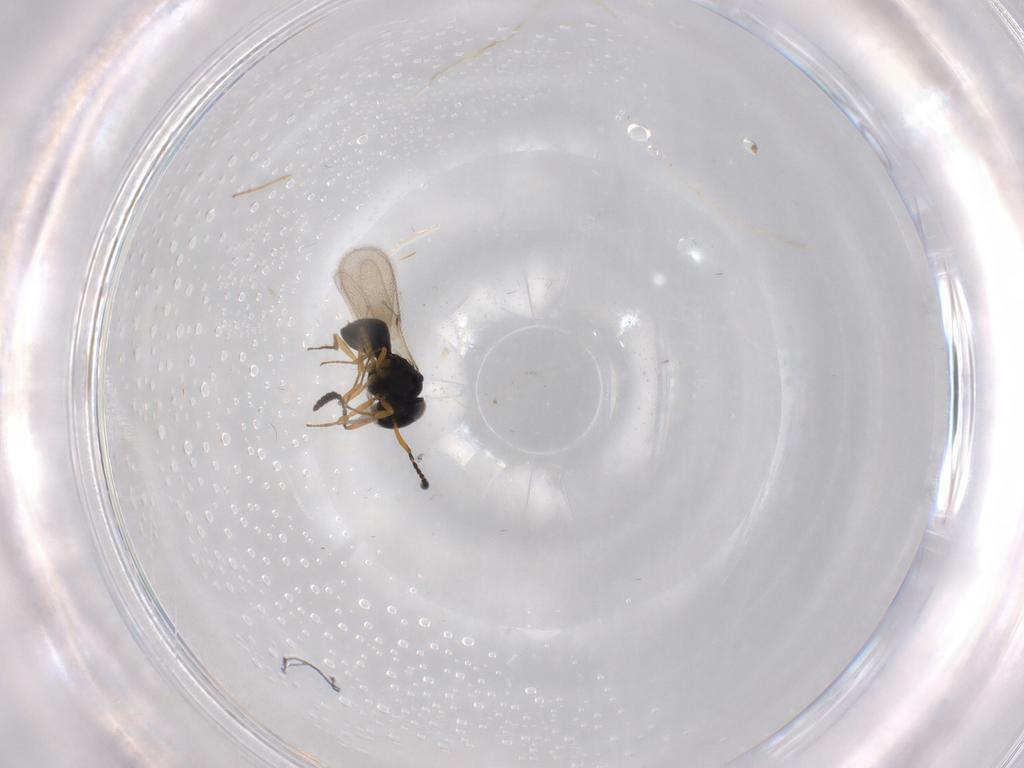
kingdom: Animalia
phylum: Arthropoda
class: Insecta
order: Hymenoptera
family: Scelionidae
